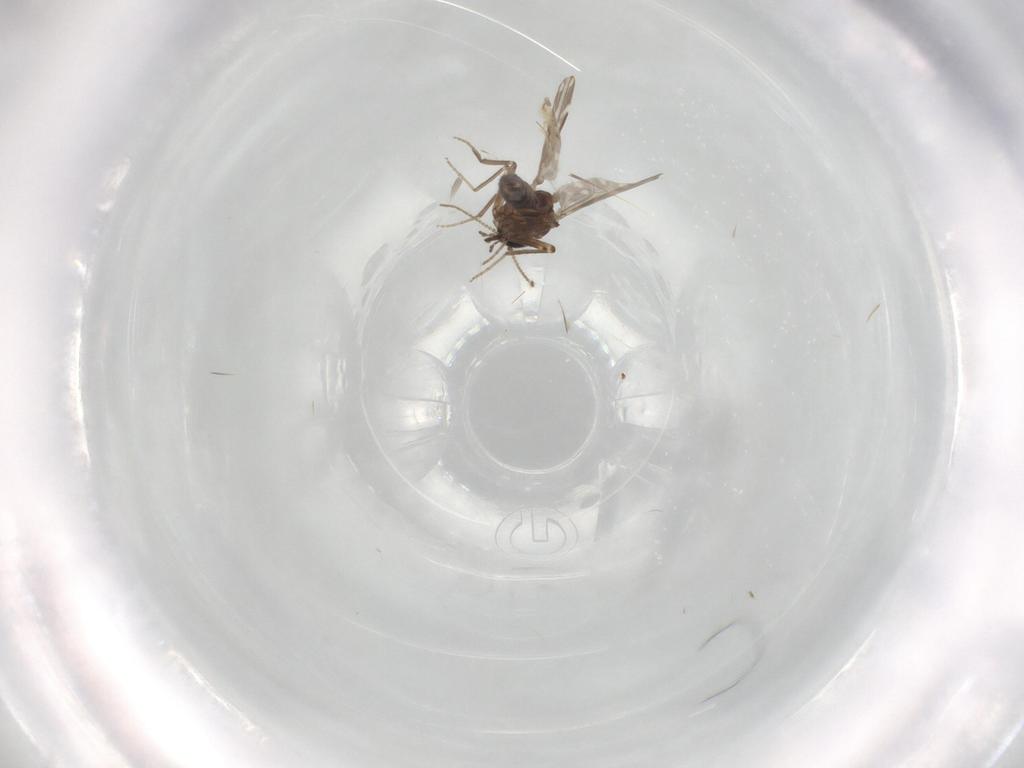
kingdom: Animalia
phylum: Arthropoda
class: Insecta
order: Diptera
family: Ceratopogonidae
